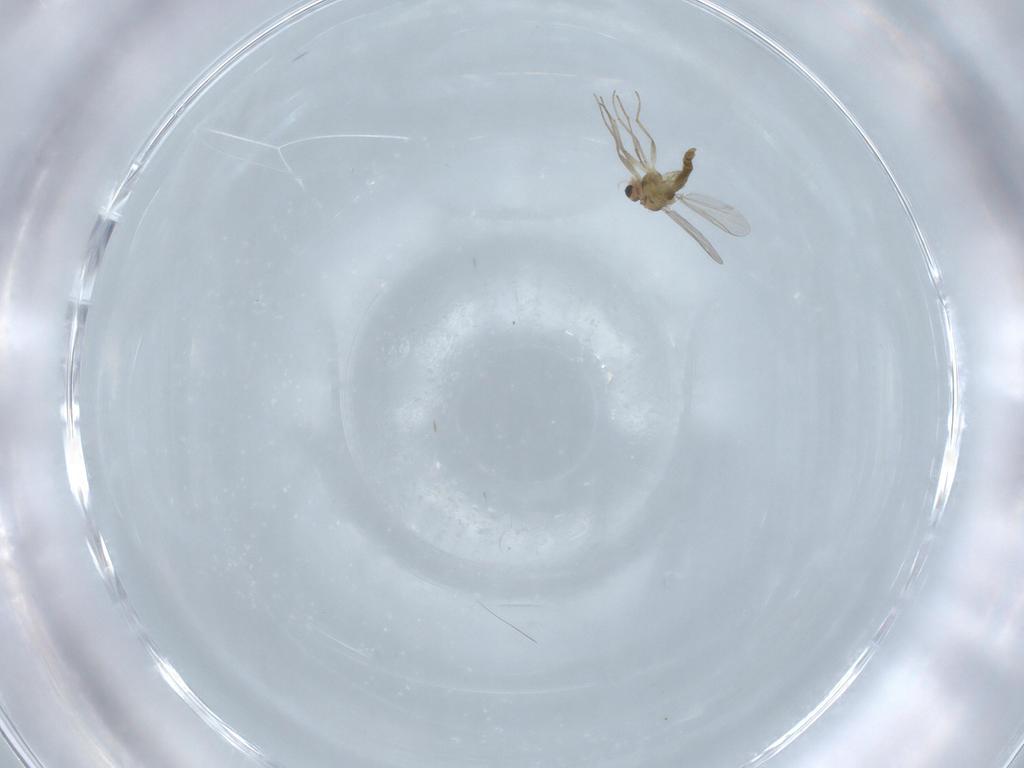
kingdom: Animalia
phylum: Arthropoda
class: Insecta
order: Diptera
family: Chironomidae
